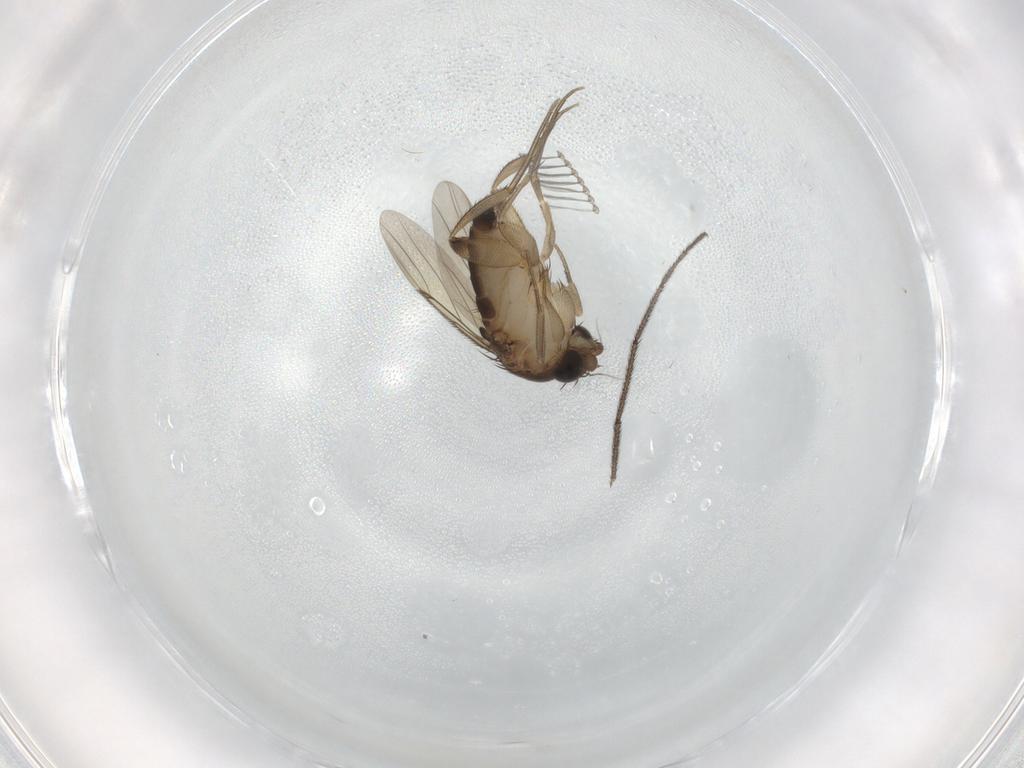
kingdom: Animalia
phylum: Arthropoda
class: Insecta
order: Diptera
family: Phoridae
